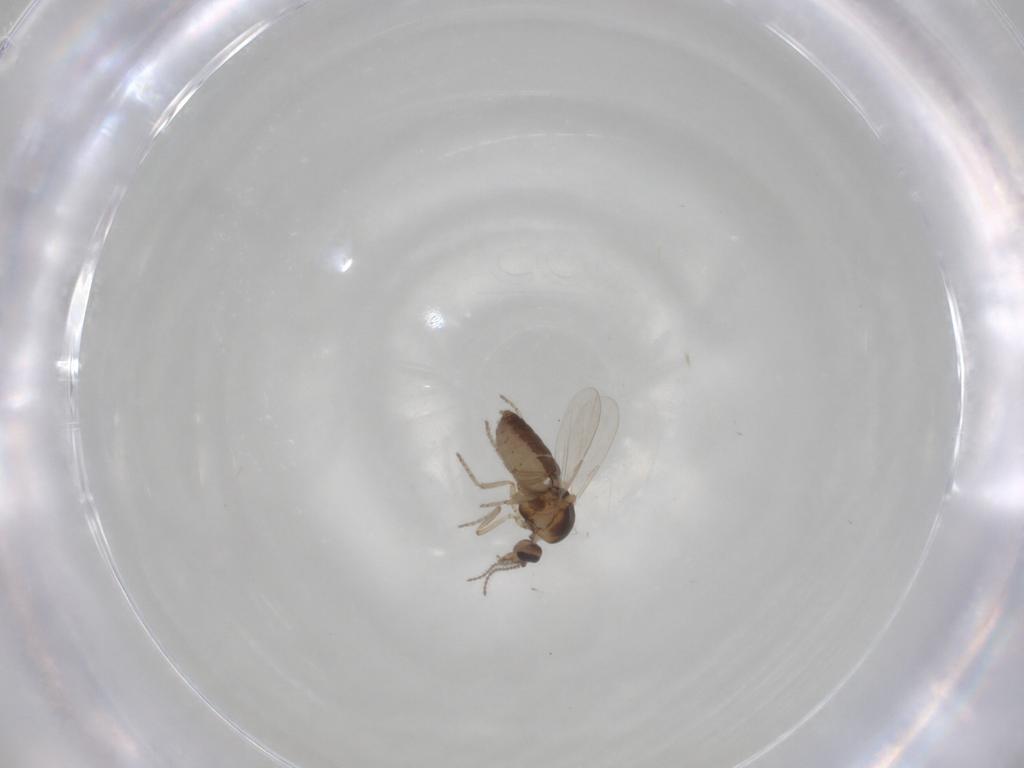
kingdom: Animalia
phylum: Arthropoda
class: Insecta
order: Diptera
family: Ceratopogonidae
